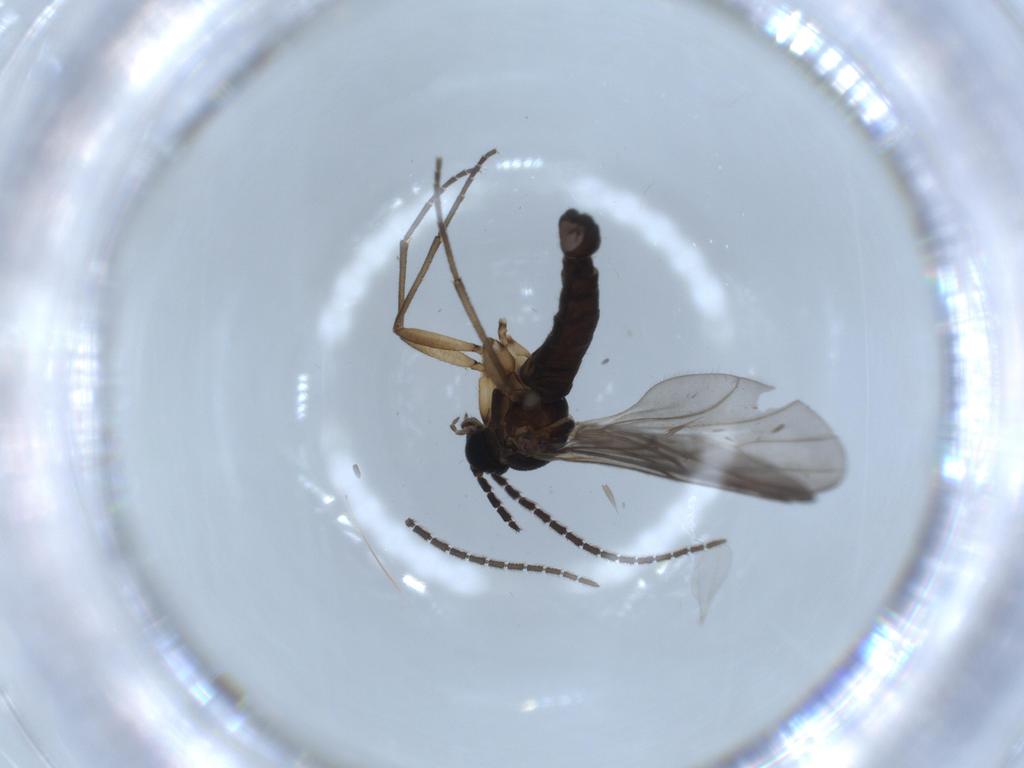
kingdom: Animalia
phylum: Arthropoda
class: Insecta
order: Diptera
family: Sciaridae
